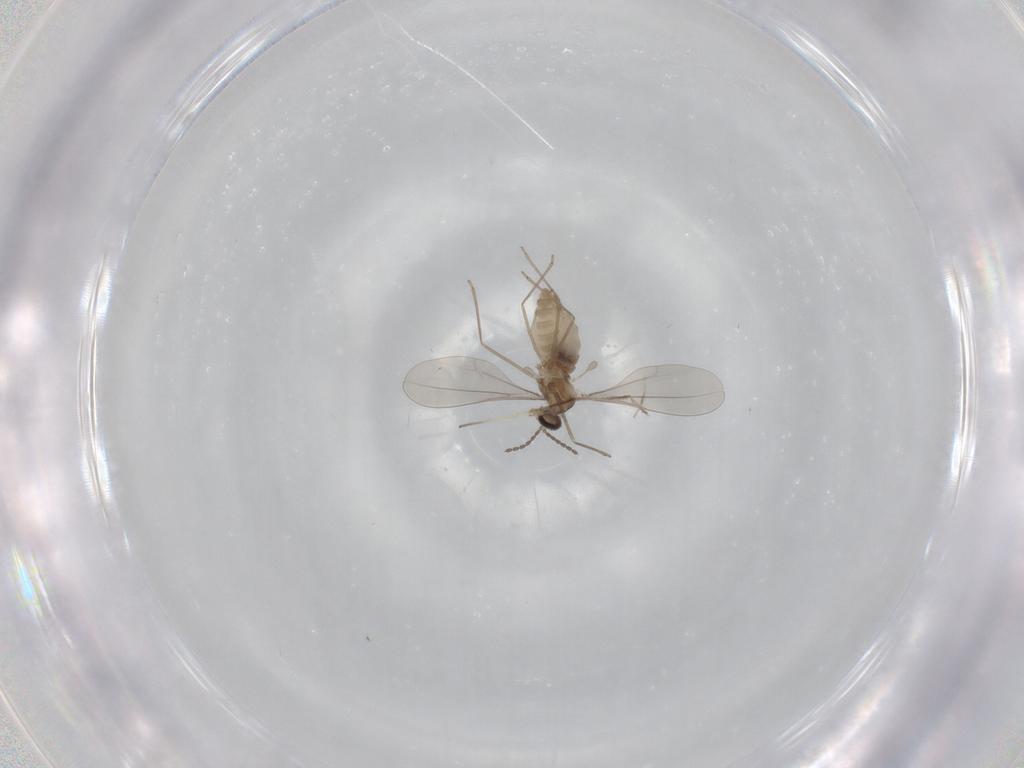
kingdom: Animalia
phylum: Arthropoda
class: Insecta
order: Diptera
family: Cecidomyiidae
